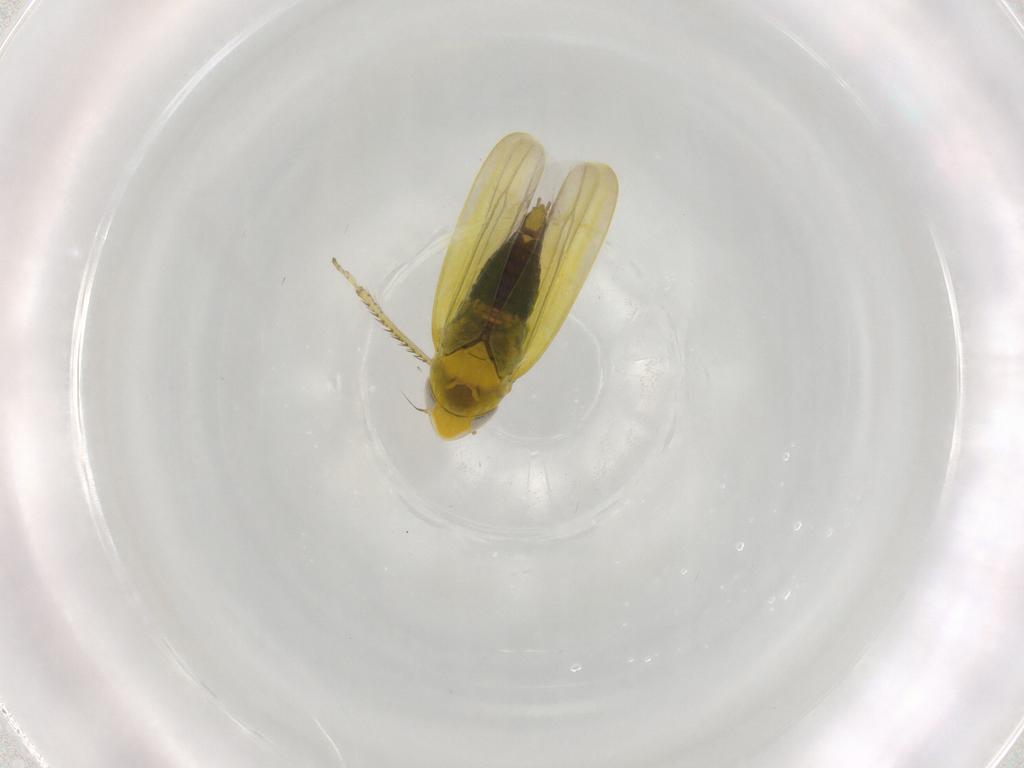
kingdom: Animalia
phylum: Arthropoda
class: Insecta
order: Hemiptera
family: Cicadellidae
